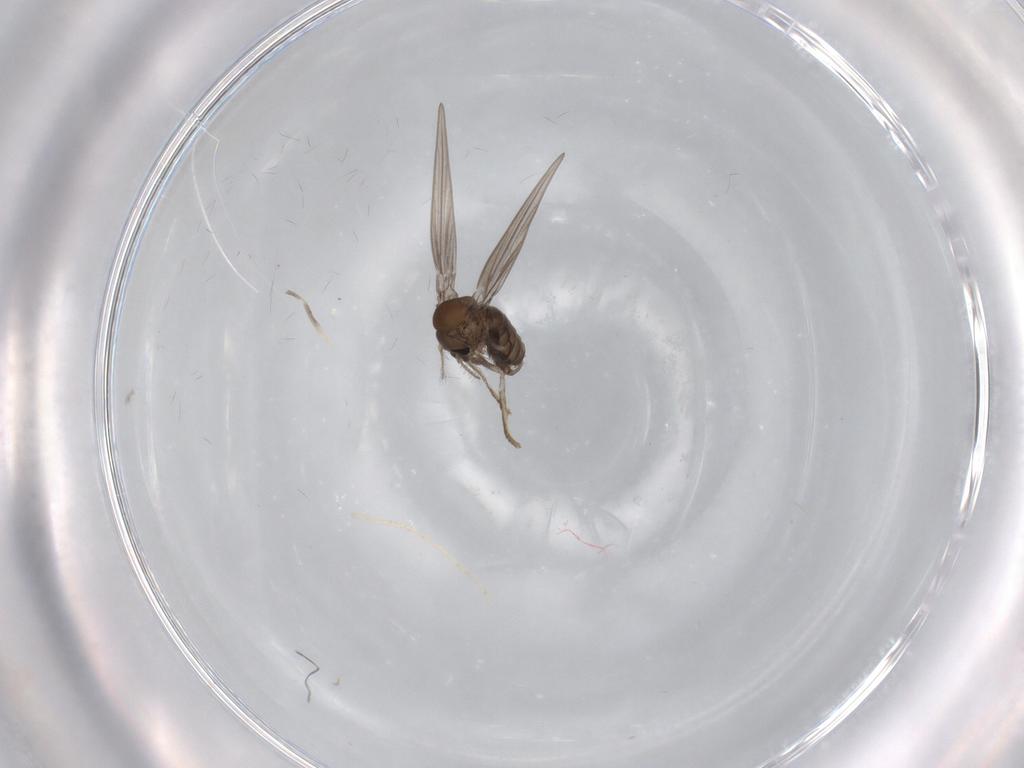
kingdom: Animalia
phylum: Arthropoda
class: Insecta
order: Diptera
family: Psychodidae
